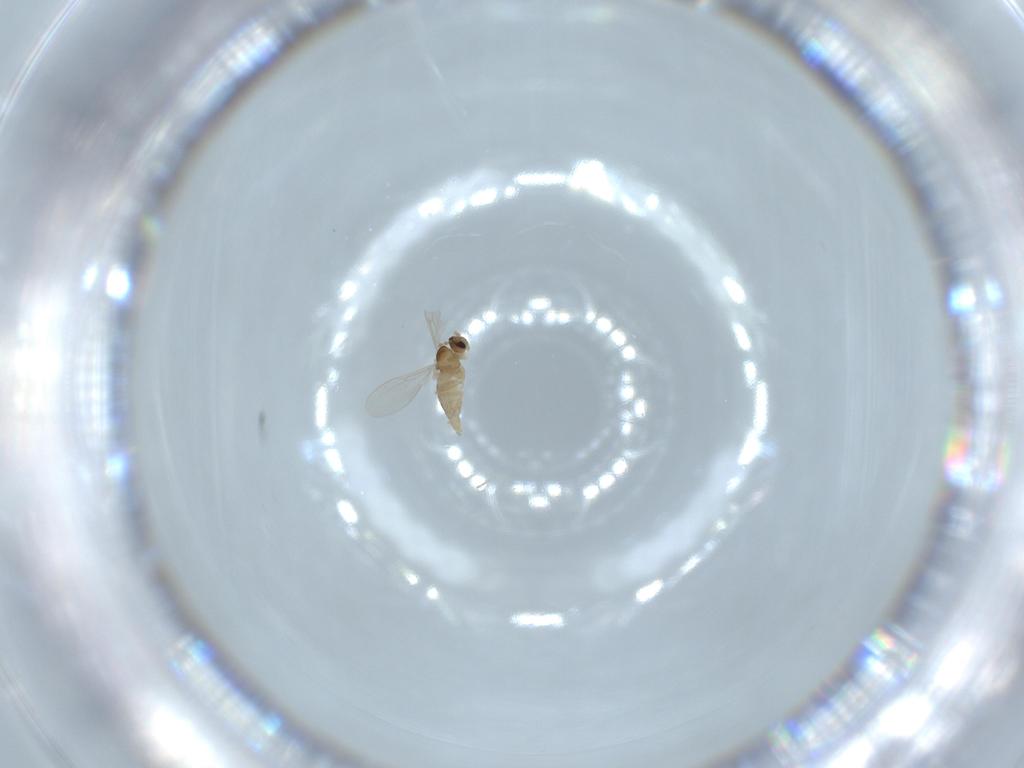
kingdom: Animalia
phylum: Arthropoda
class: Insecta
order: Diptera
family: Cecidomyiidae
